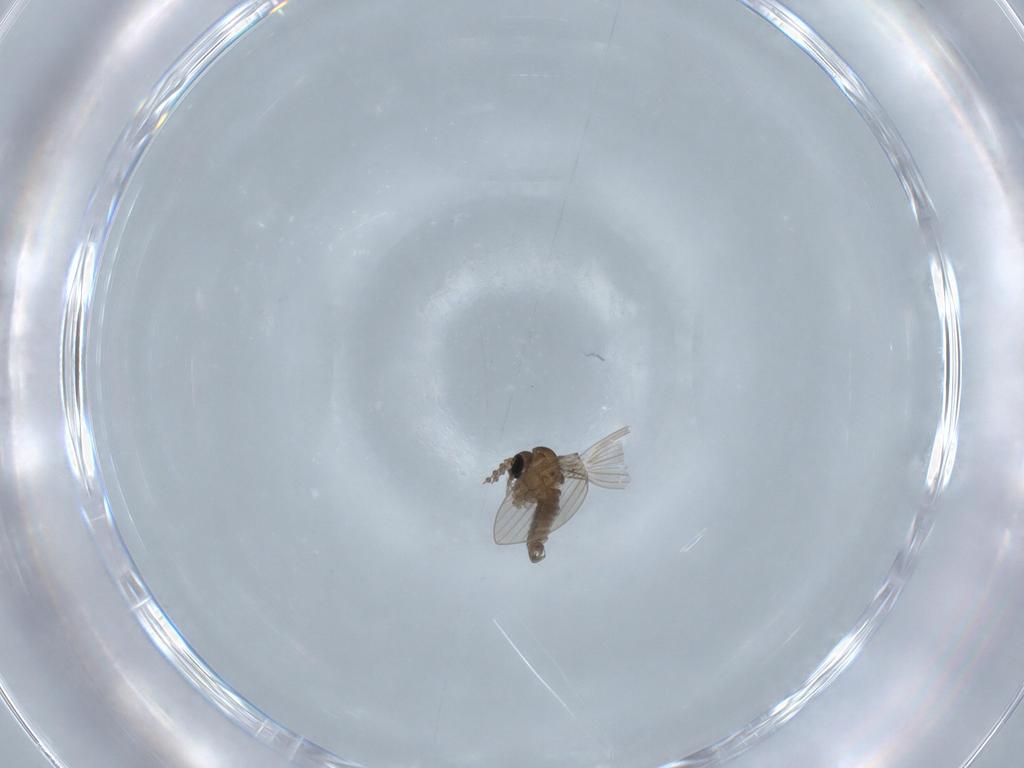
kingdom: Animalia
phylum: Arthropoda
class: Insecta
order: Diptera
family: Psychodidae
